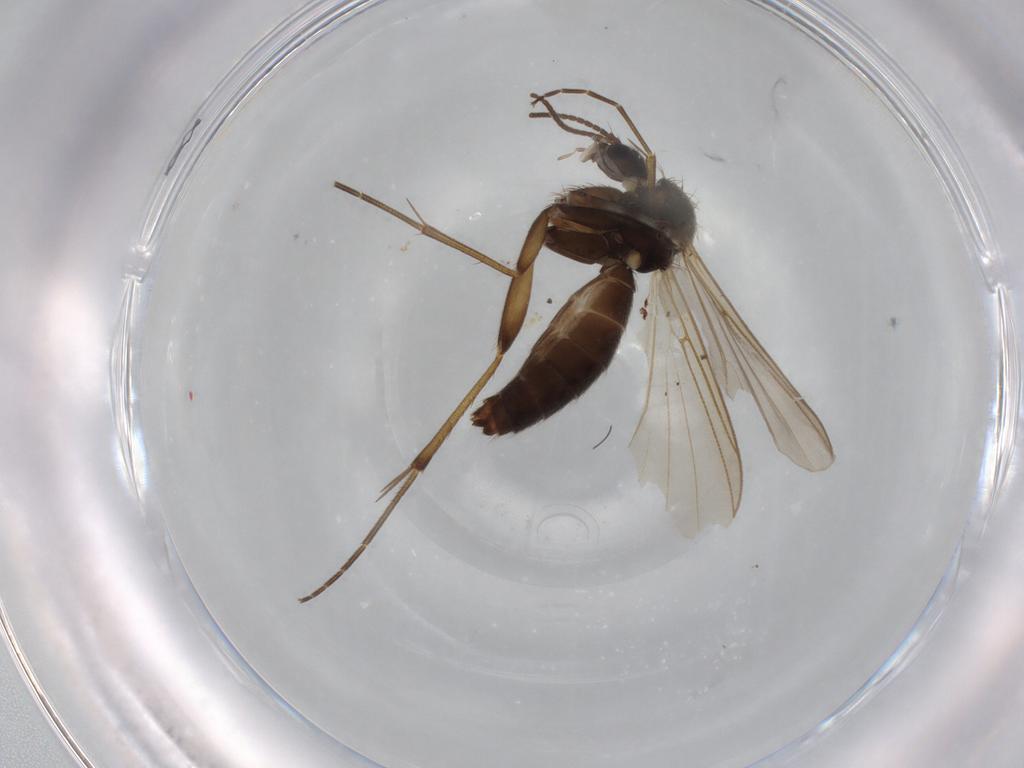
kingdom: Animalia
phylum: Arthropoda
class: Insecta
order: Diptera
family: Mycetophilidae
